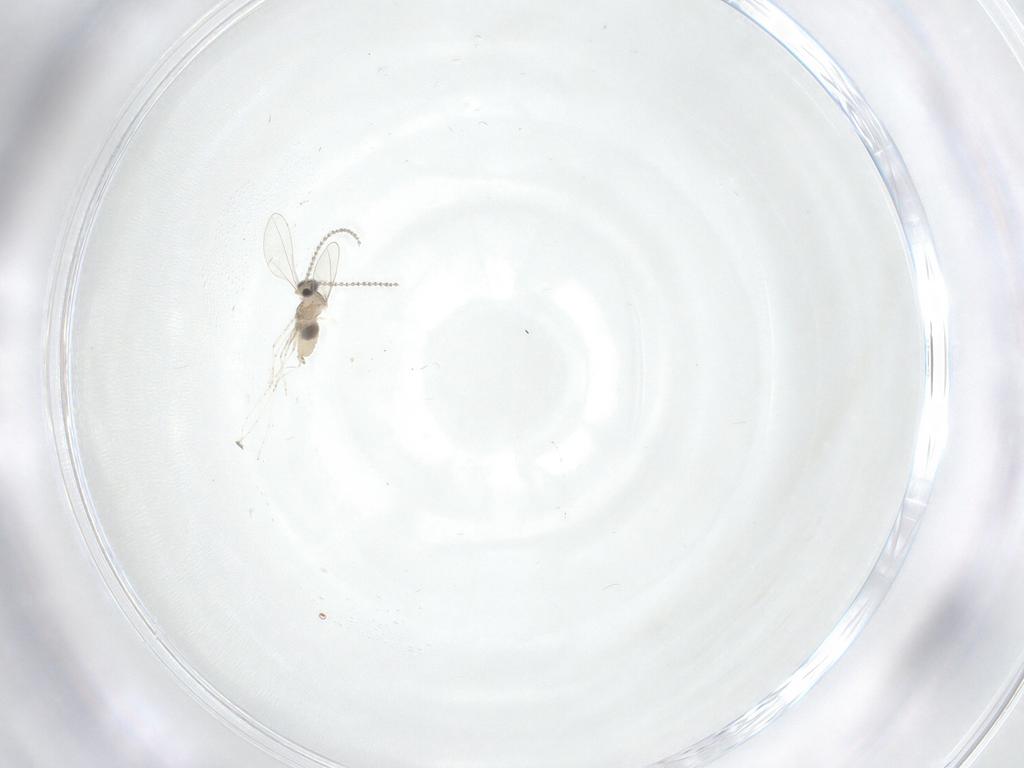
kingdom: Animalia
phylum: Arthropoda
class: Insecta
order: Diptera
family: Cecidomyiidae
